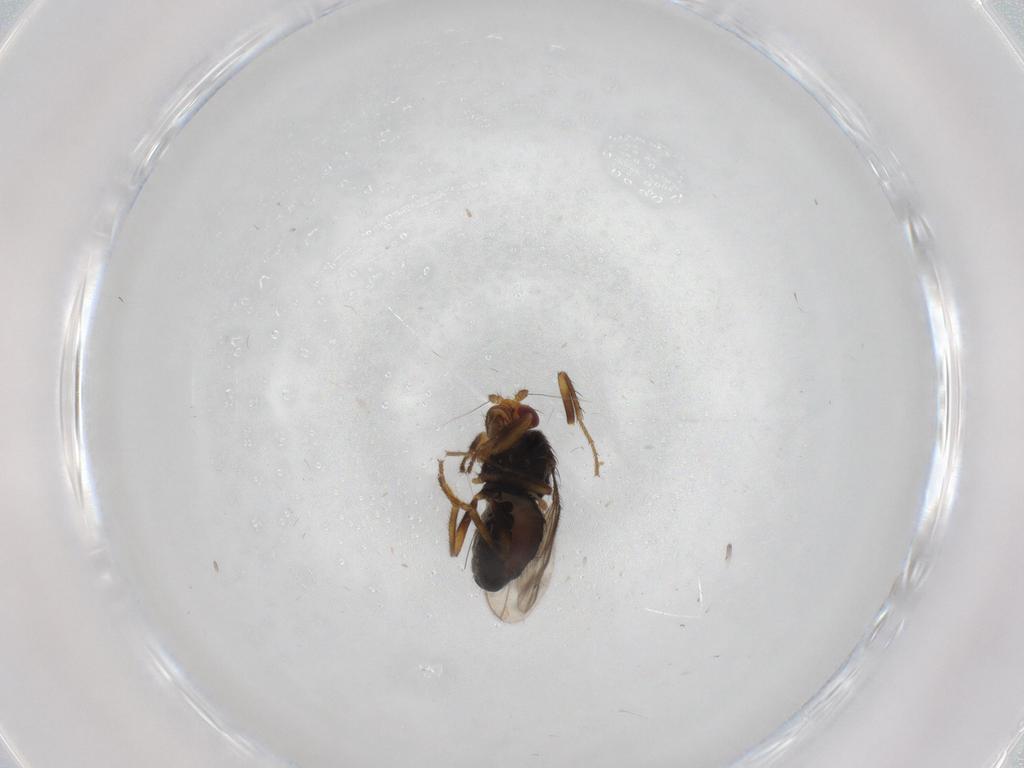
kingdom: Animalia
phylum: Arthropoda
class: Insecta
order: Diptera
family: Sphaeroceridae
